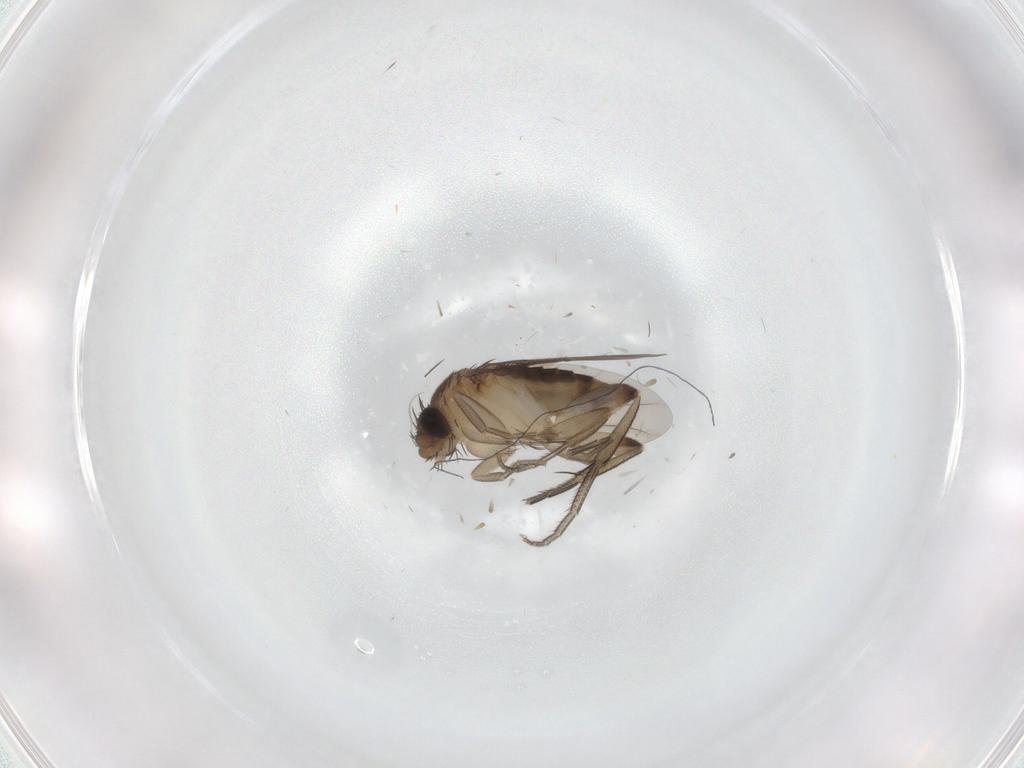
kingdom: Animalia
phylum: Arthropoda
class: Insecta
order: Diptera
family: Phoridae
